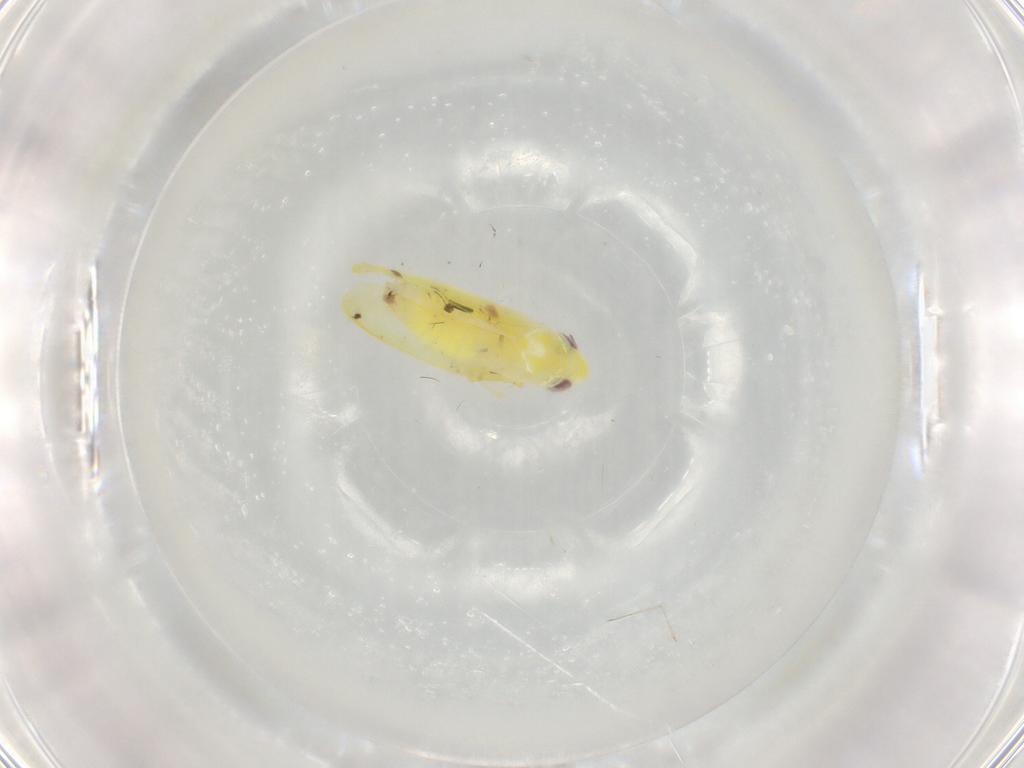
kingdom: Animalia
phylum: Arthropoda
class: Insecta
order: Hemiptera
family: Cicadellidae
